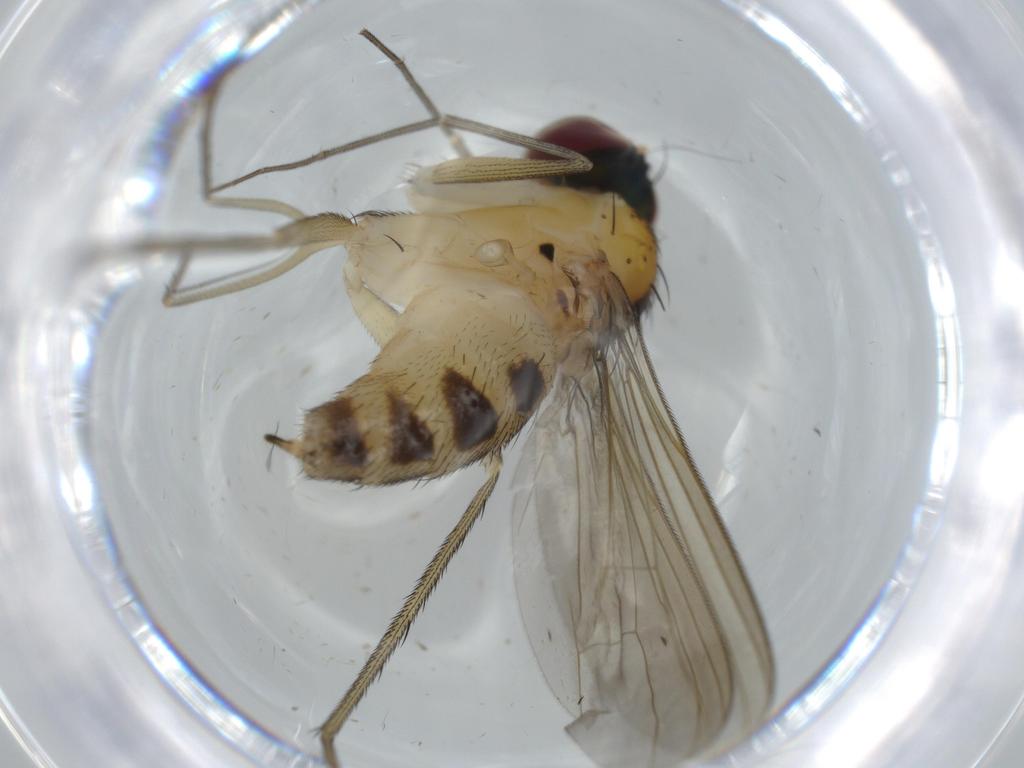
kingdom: Animalia
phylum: Arthropoda
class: Insecta
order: Diptera
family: Dolichopodidae
